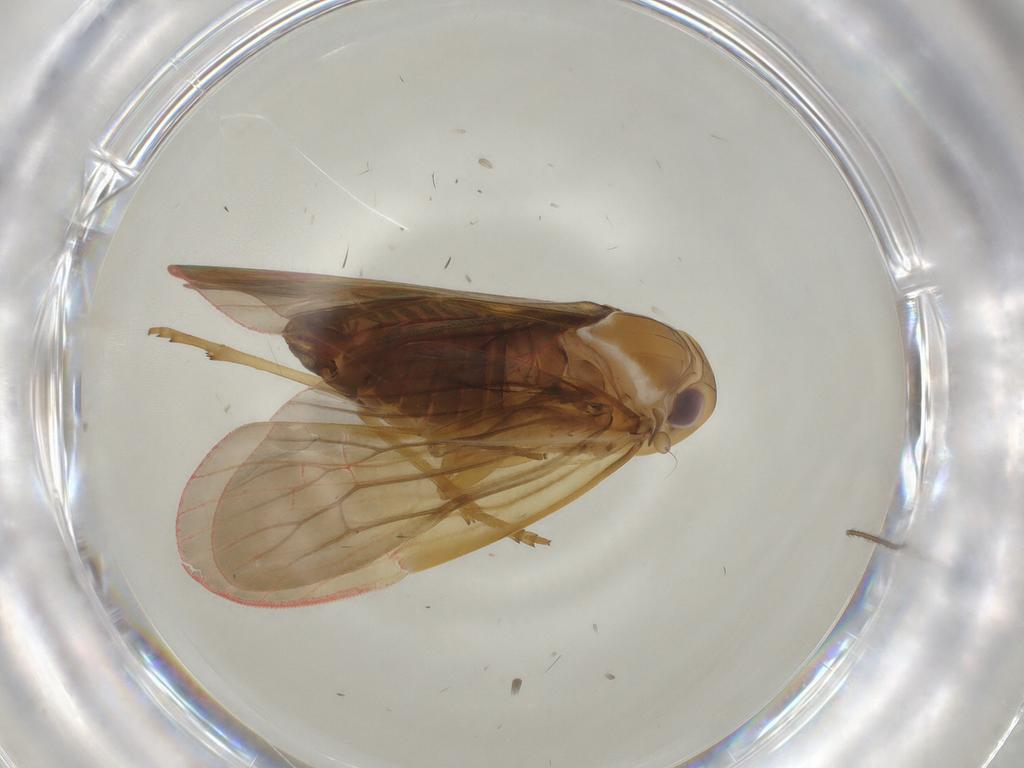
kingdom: Animalia
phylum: Arthropoda
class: Insecta
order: Hemiptera
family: Achilidae
